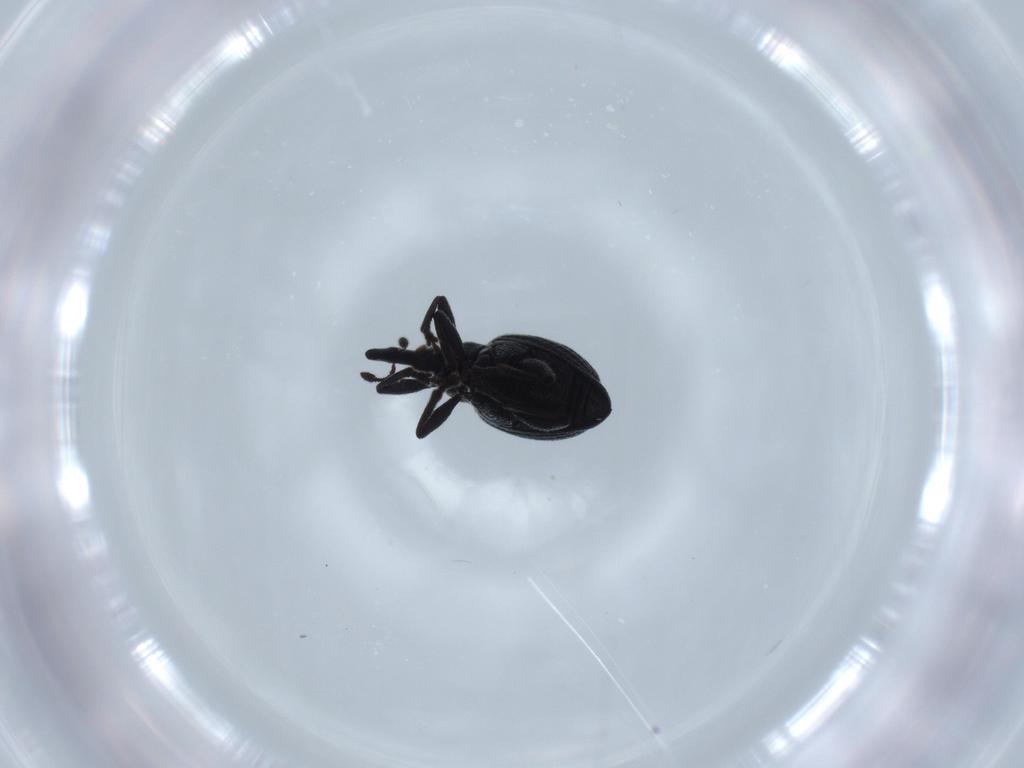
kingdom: Animalia
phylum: Arthropoda
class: Insecta
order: Coleoptera
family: Brentidae
